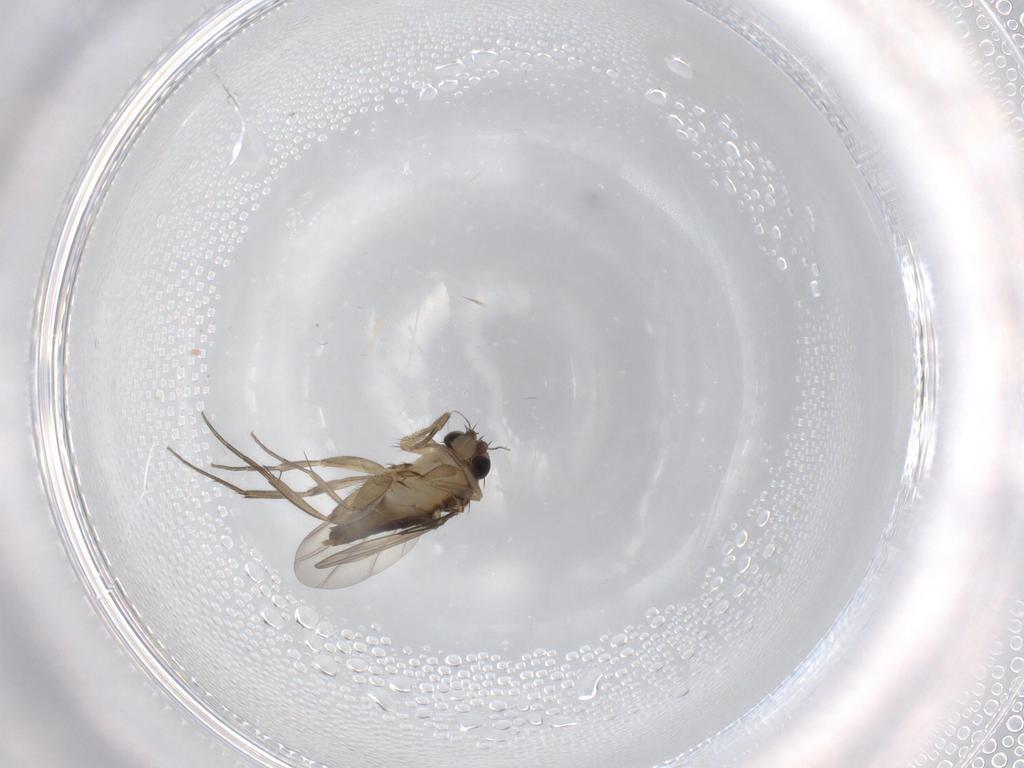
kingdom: Animalia
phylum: Arthropoda
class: Insecta
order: Diptera
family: Phoridae
